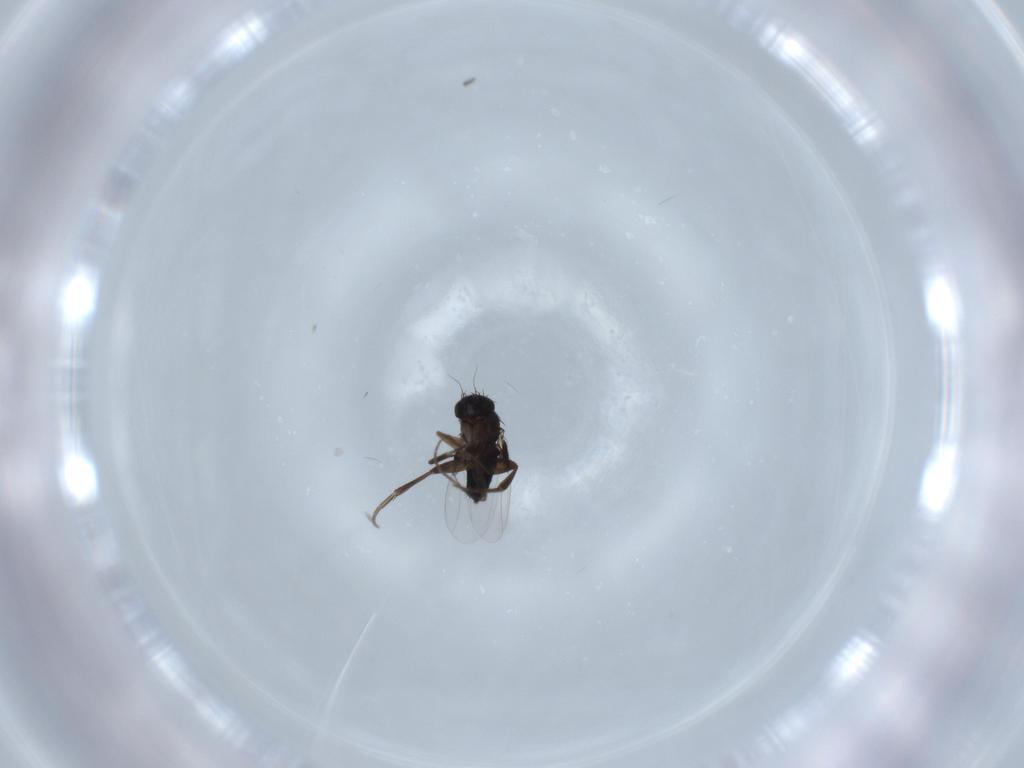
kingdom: Animalia
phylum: Arthropoda
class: Insecta
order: Diptera
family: Phoridae
